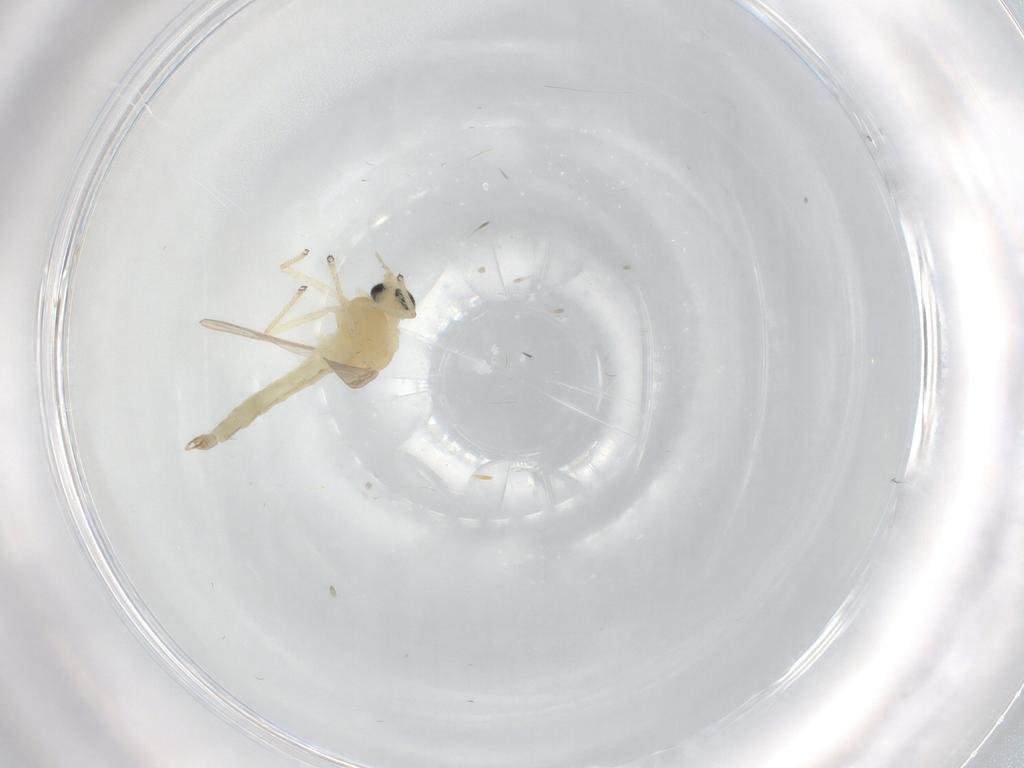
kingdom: Animalia
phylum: Arthropoda
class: Insecta
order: Diptera
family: Chironomidae
